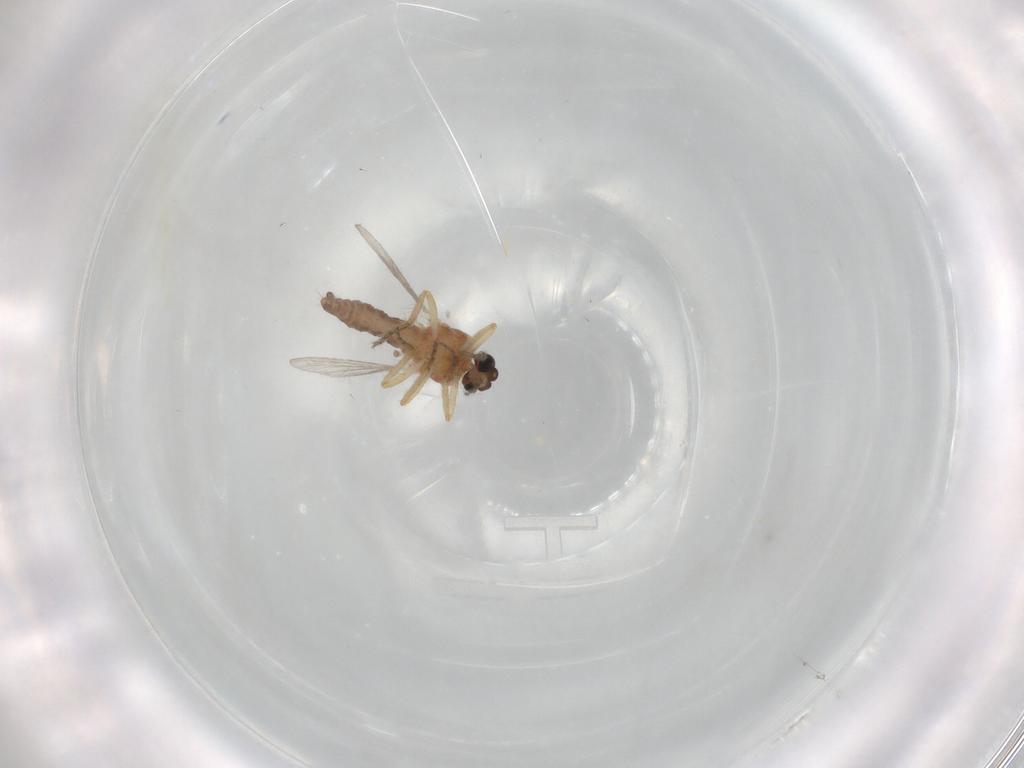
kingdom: Animalia
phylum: Arthropoda
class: Insecta
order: Diptera
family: Ceratopogonidae
